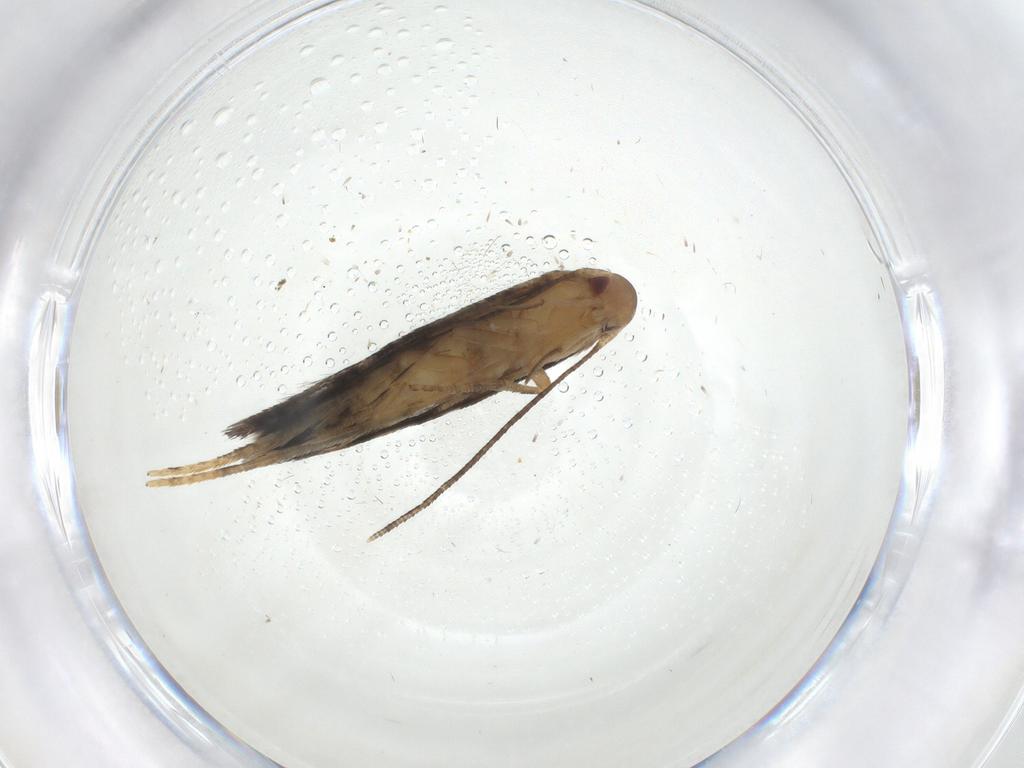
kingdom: Animalia
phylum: Arthropoda
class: Insecta
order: Lepidoptera
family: Depressariidae
